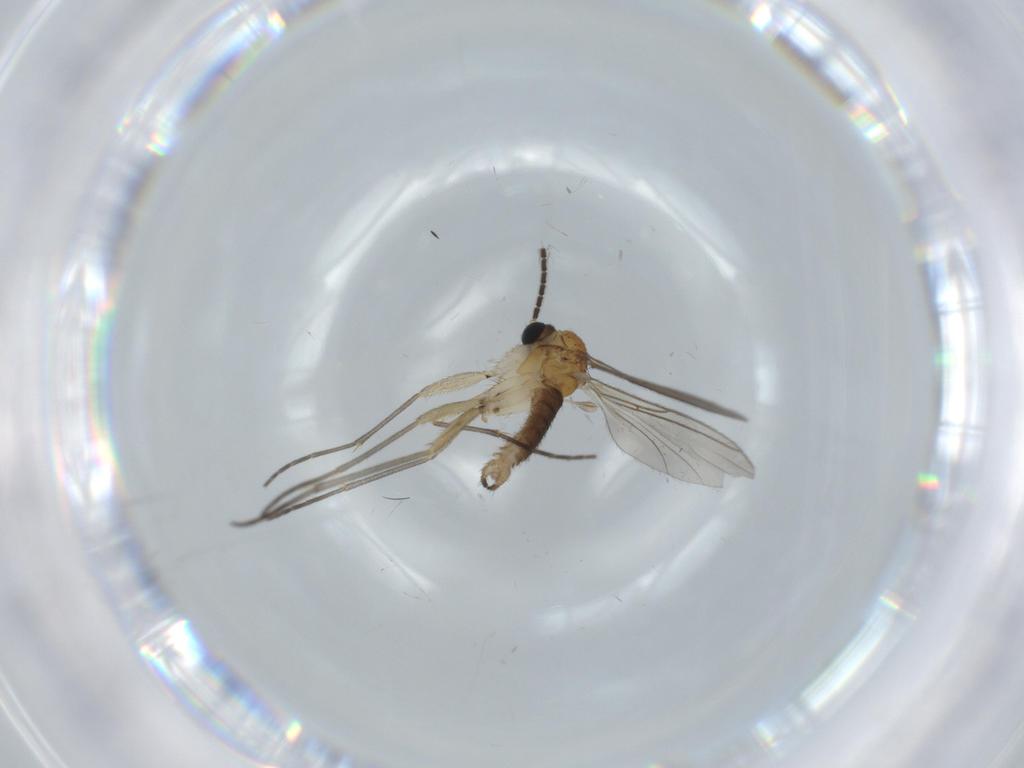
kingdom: Animalia
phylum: Arthropoda
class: Insecta
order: Diptera
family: Sciaridae
